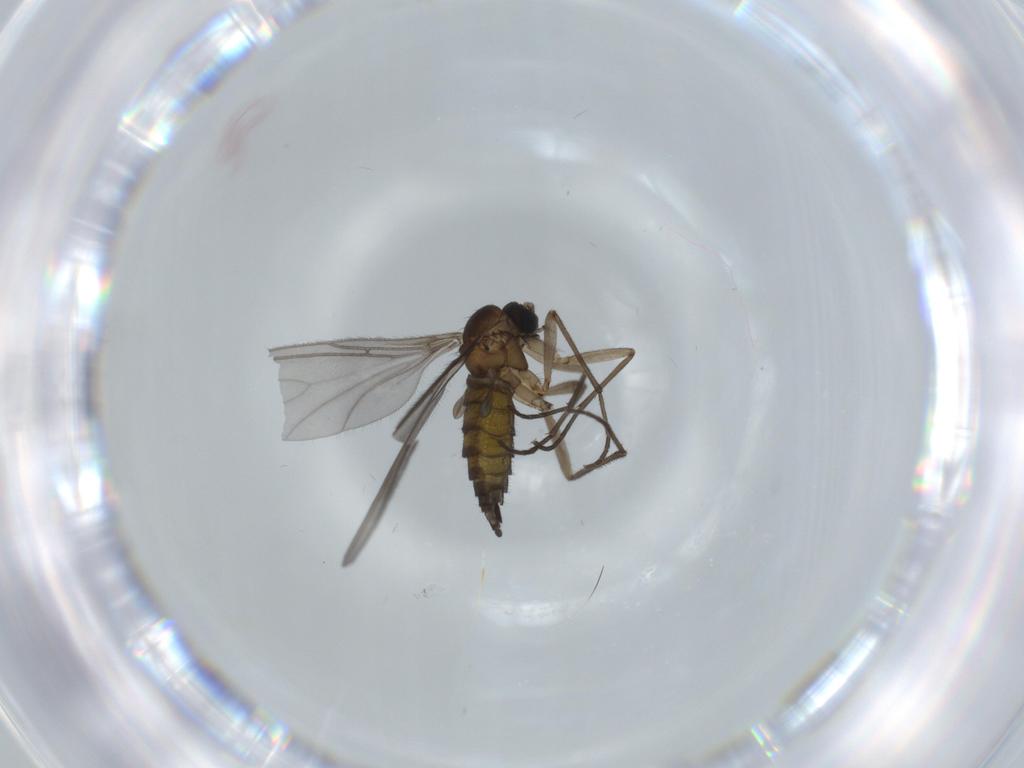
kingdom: Animalia
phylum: Arthropoda
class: Insecta
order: Diptera
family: Sciaridae
